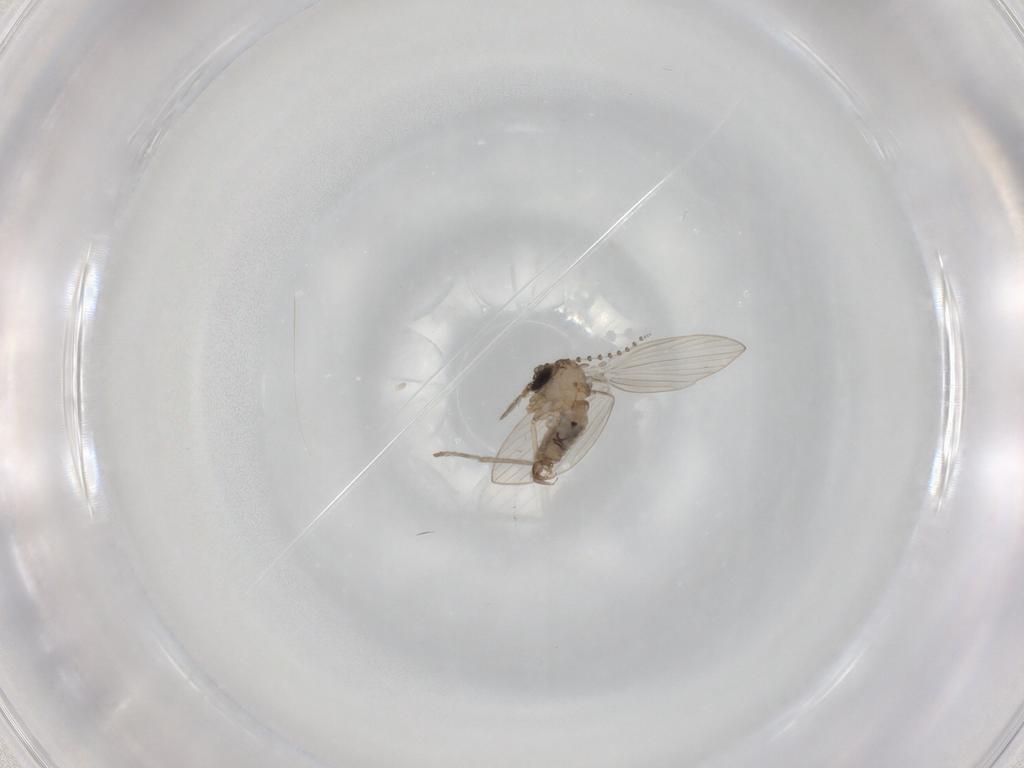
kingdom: Animalia
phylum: Arthropoda
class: Insecta
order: Diptera
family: Psychodidae
